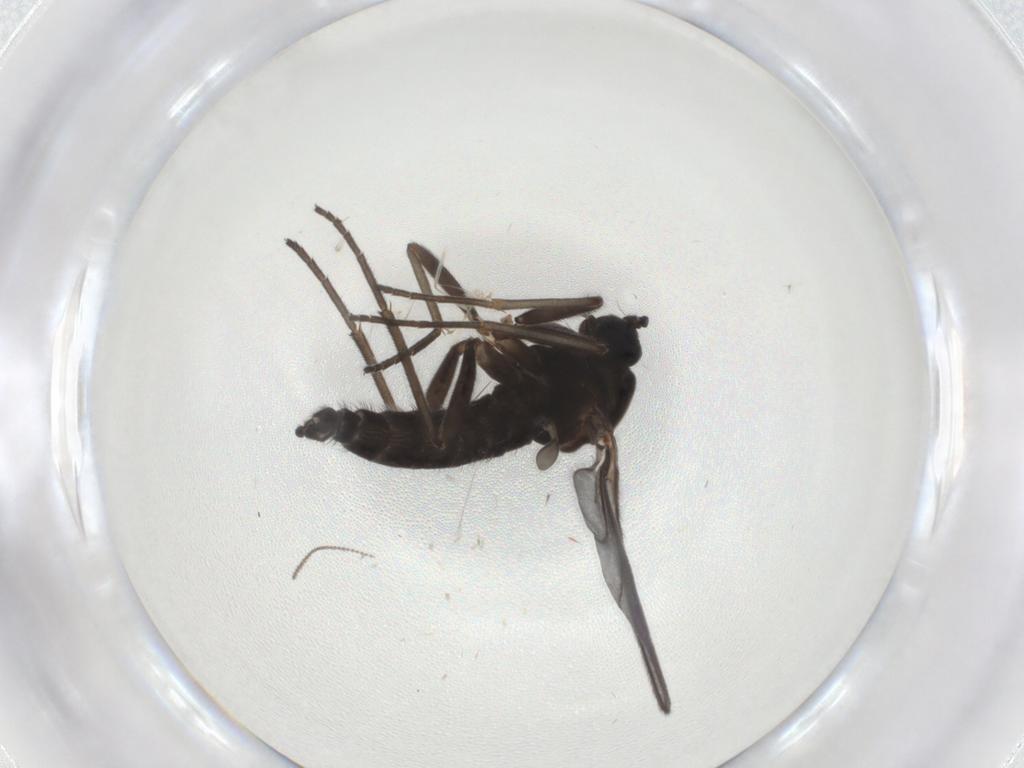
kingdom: Animalia
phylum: Arthropoda
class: Insecta
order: Diptera
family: Sciaridae
